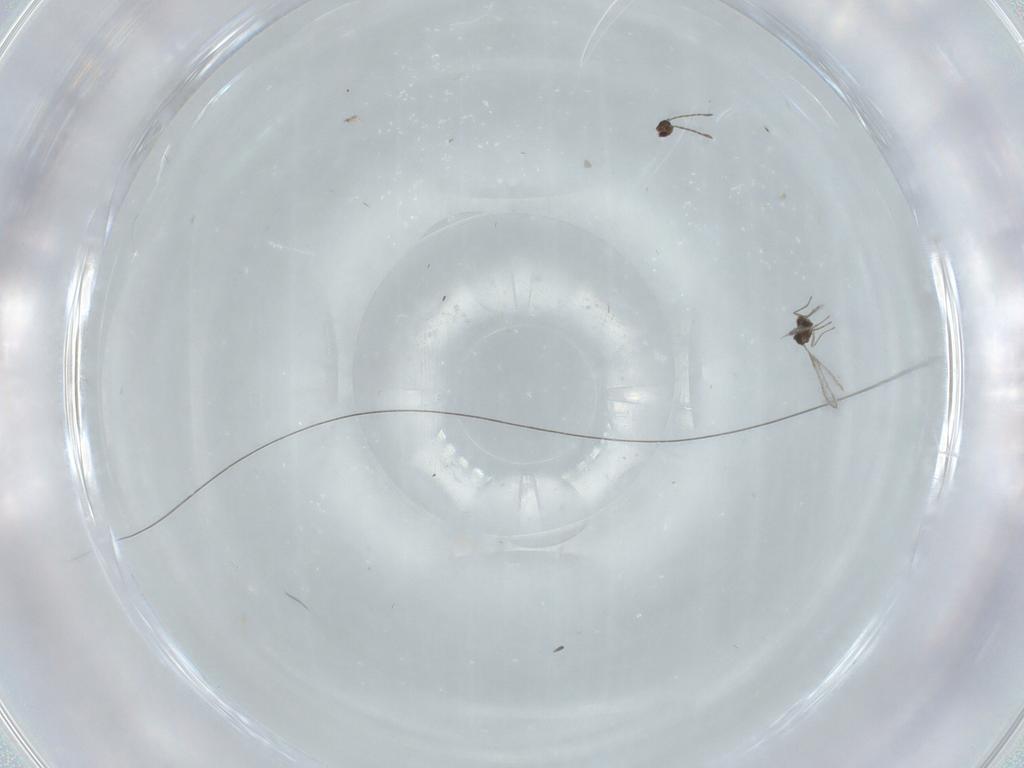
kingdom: Animalia
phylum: Arthropoda
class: Insecta
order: Hymenoptera
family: Mymaridae
